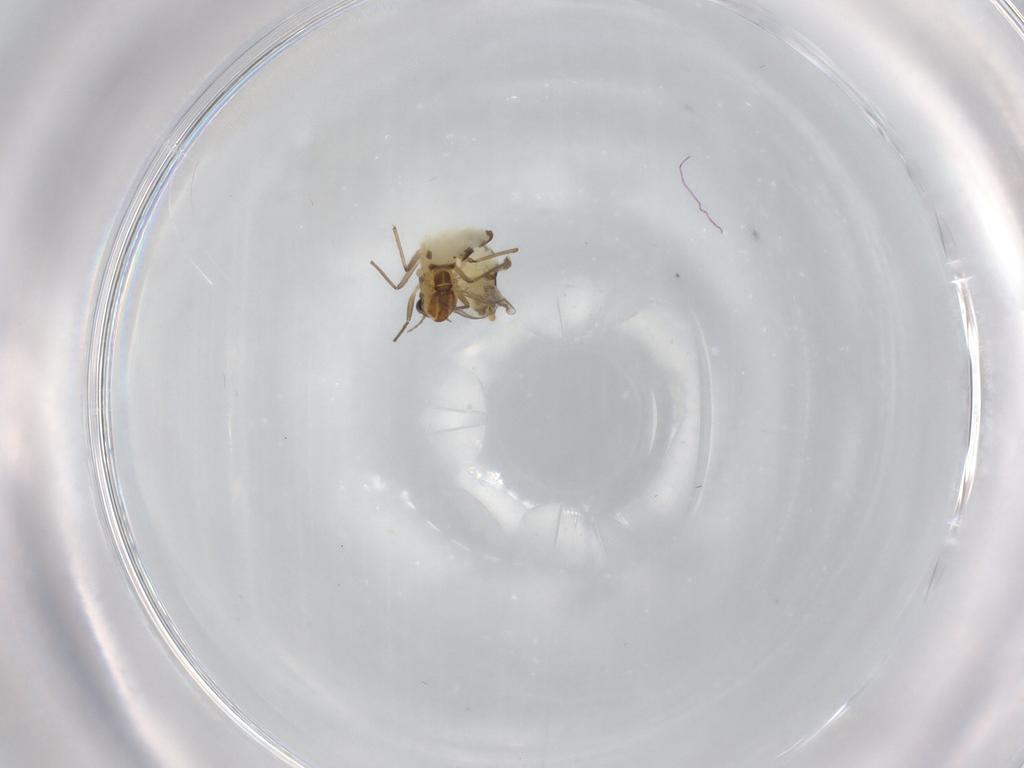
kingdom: Animalia
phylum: Arthropoda
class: Insecta
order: Diptera
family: Chironomidae
